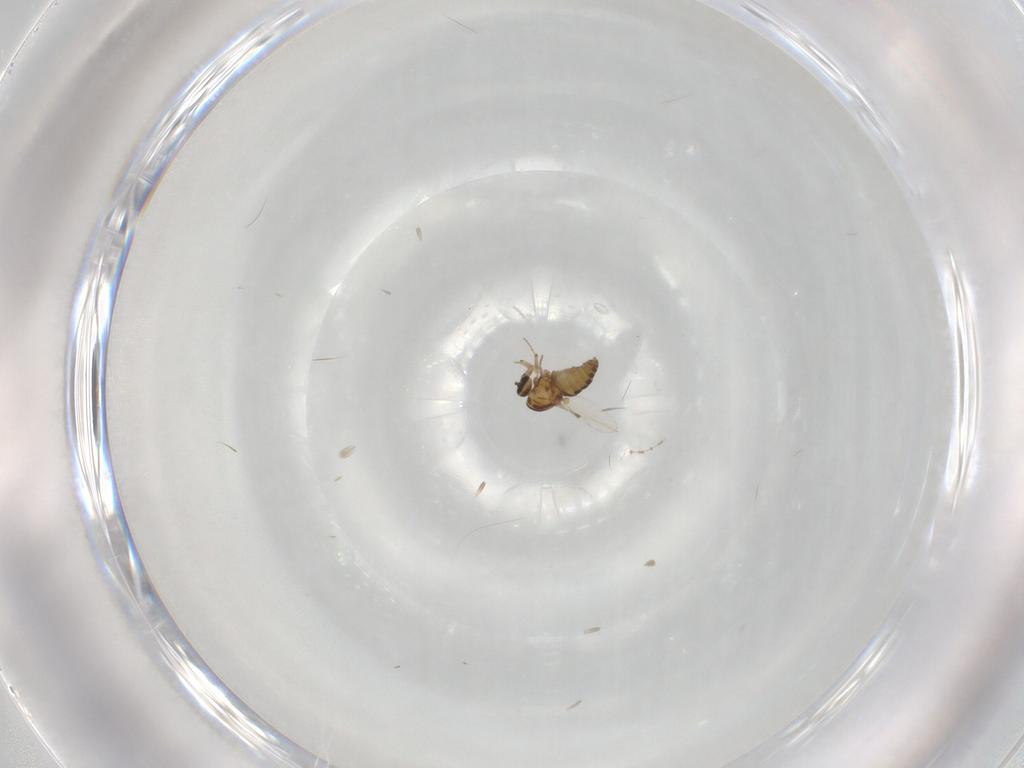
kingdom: Animalia
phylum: Arthropoda
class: Insecta
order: Diptera
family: Ceratopogonidae
